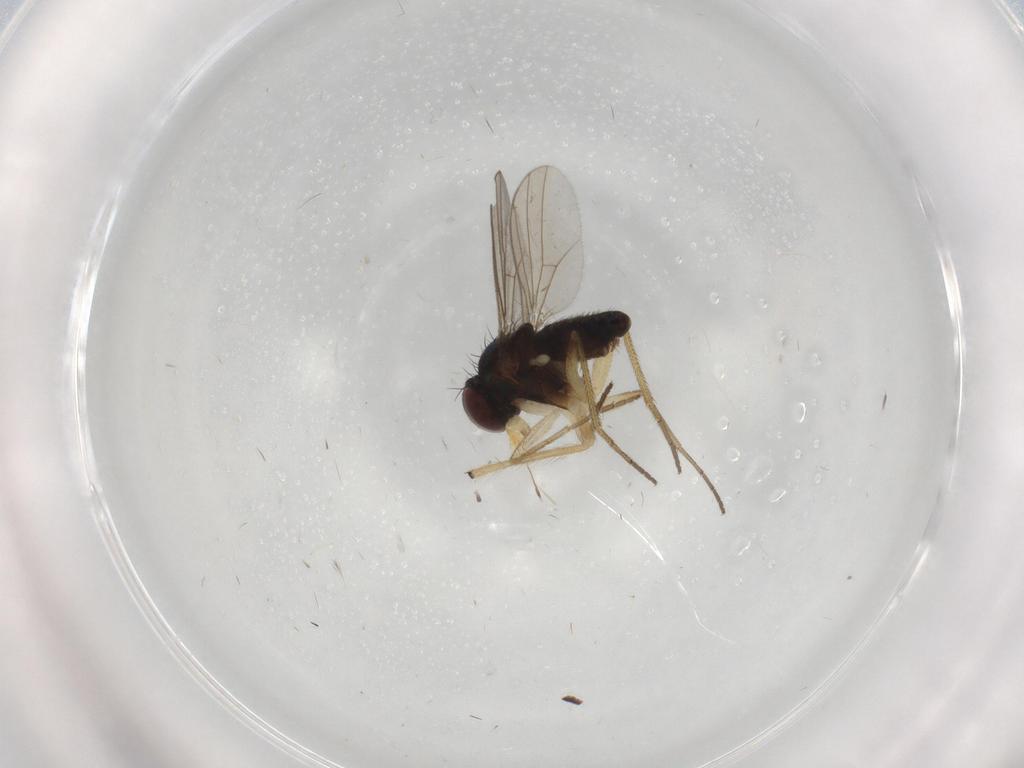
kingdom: Animalia
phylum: Arthropoda
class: Insecta
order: Diptera
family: Dolichopodidae
